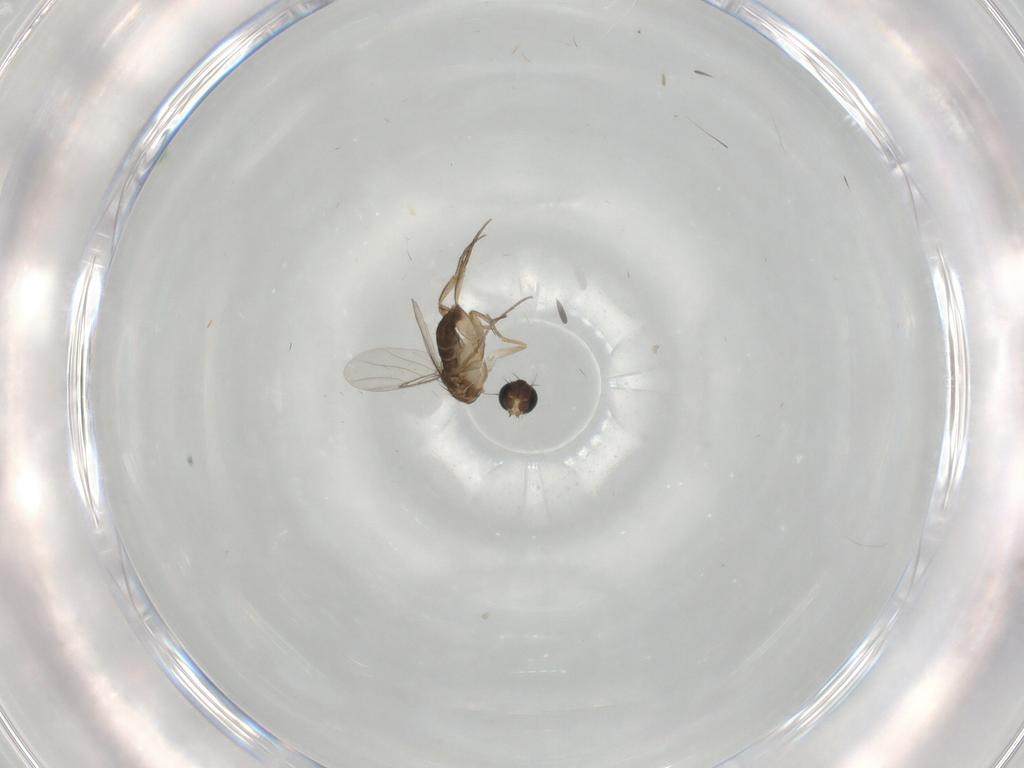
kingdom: Animalia
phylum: Arthropoda
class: Insecta
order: Diptera
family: Phoridae
